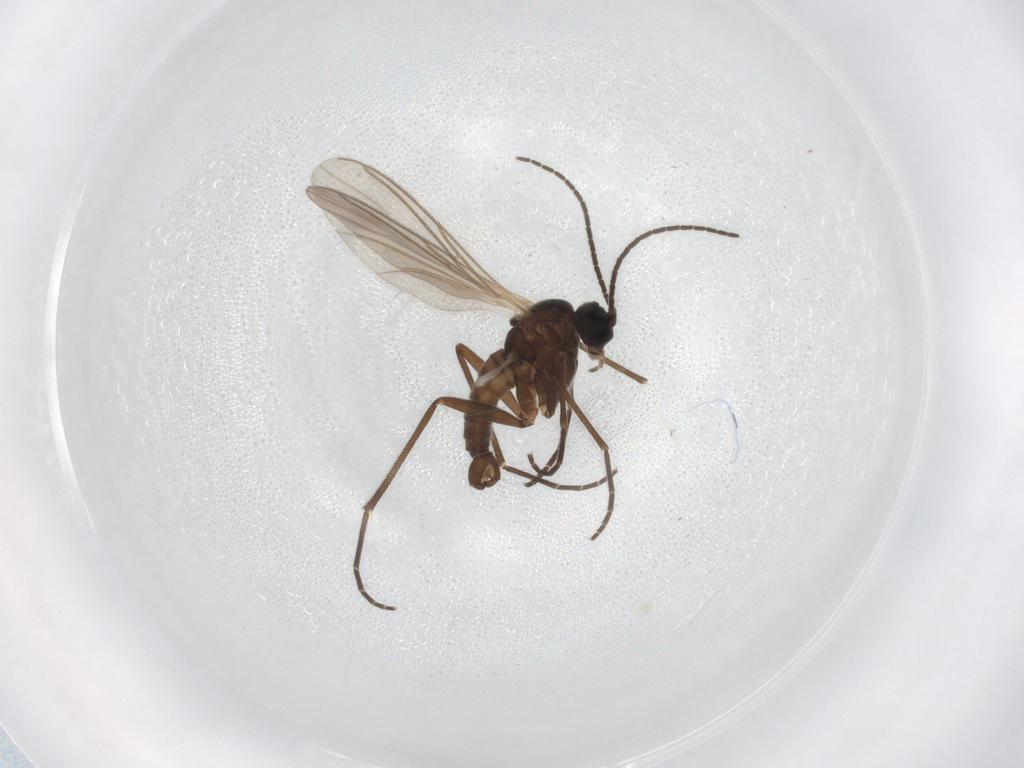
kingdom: Animalia
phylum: Arthropoda
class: Insecta
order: Diptera
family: Sciaridae
